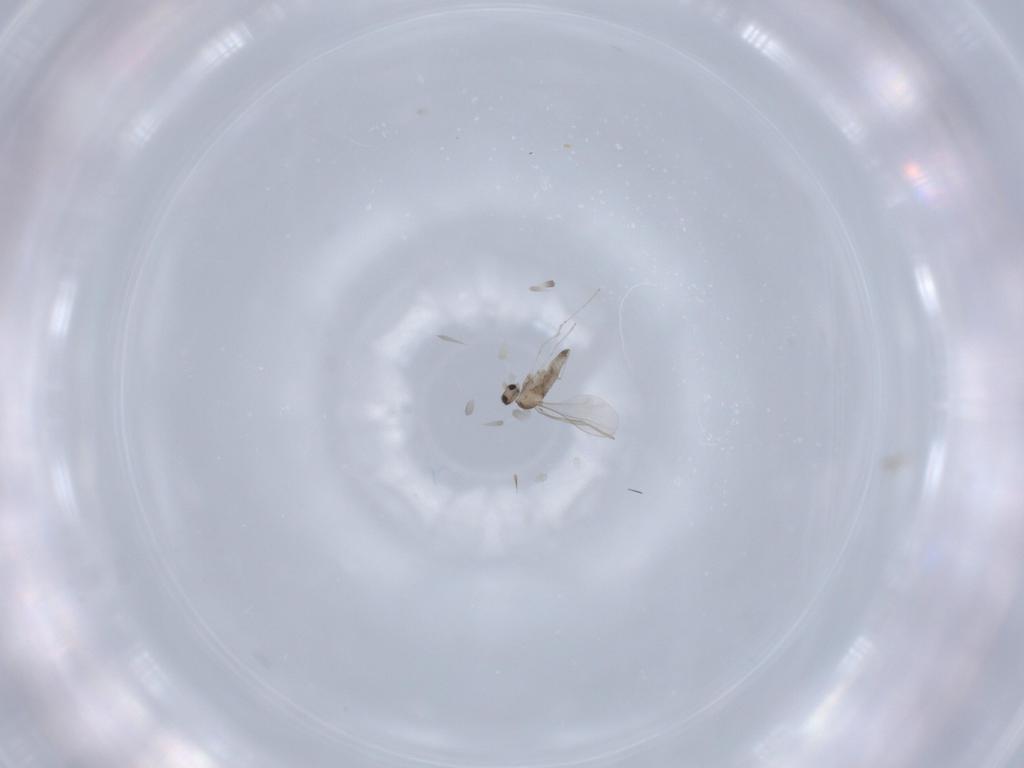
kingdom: Animalia
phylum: Arthropoda
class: Insecta
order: Diptera
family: Cecidomyiidae
